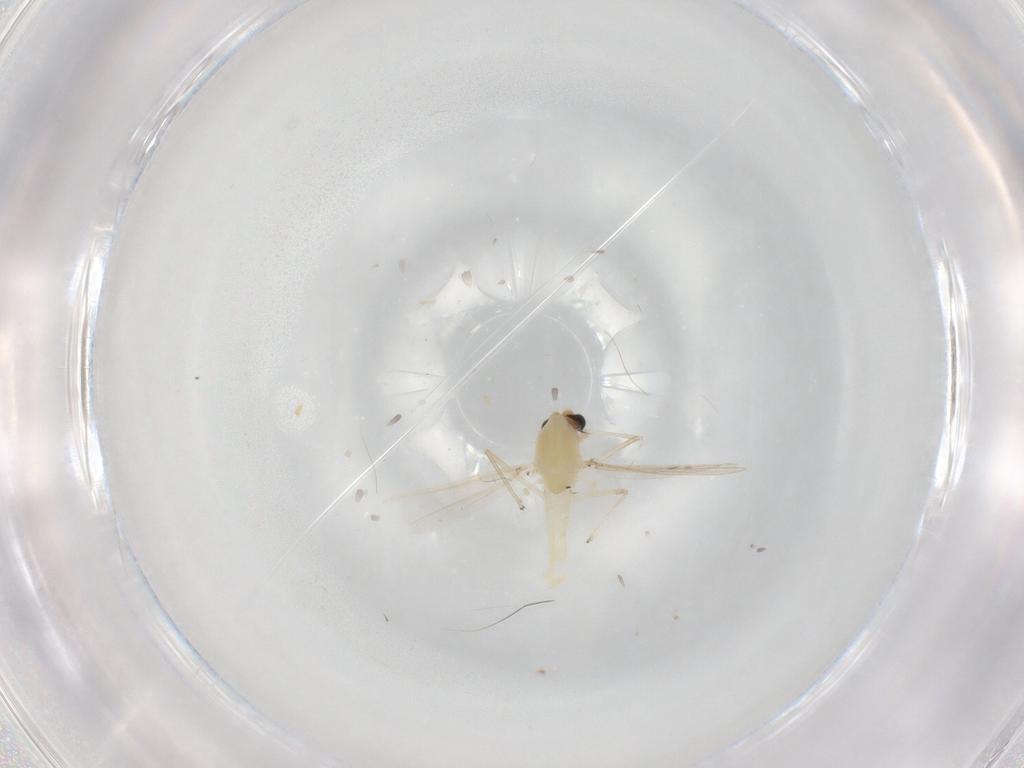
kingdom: Animalia
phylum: Arthropoda
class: Insecta
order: Diptera
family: Chironomidae
